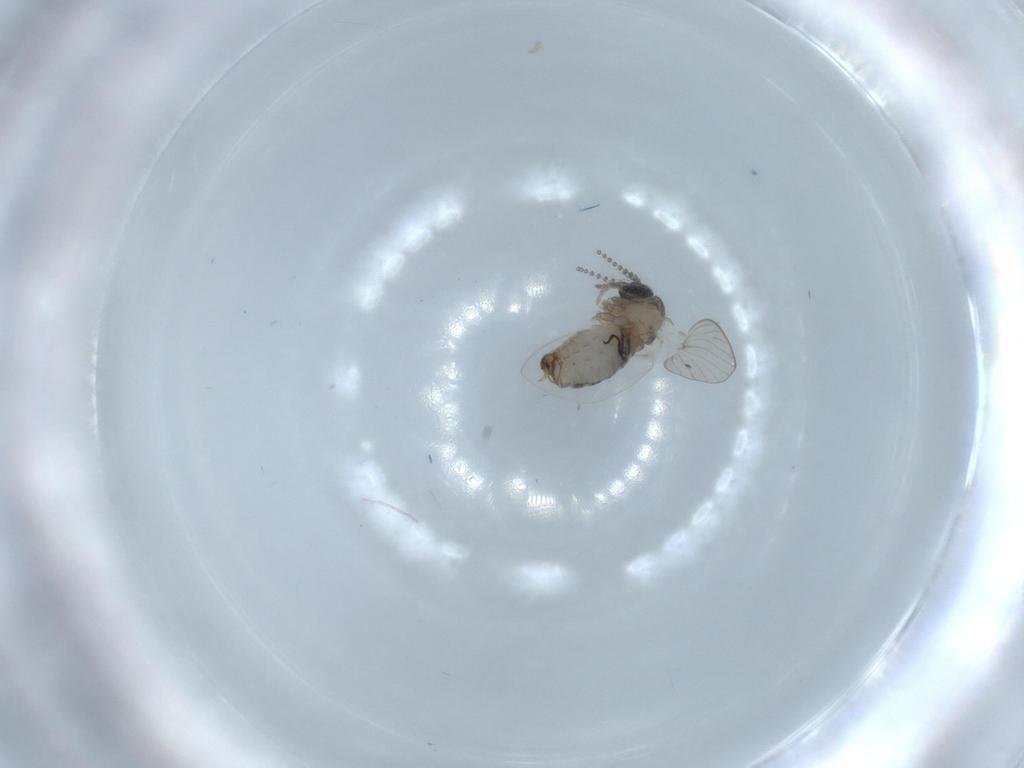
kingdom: Animalia
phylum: Arthropoda
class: Insecta
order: Diptera
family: Psychodidae
